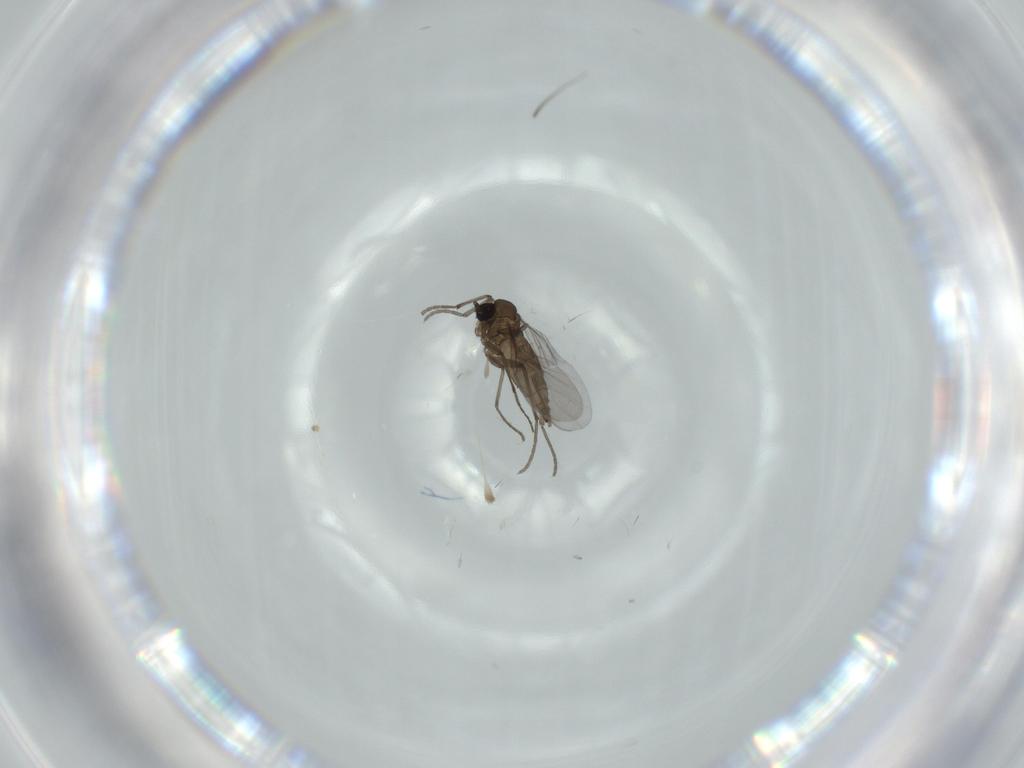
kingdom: Animalia
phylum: Arthropoda
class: Insecta
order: Diptera
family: Sciaridae
